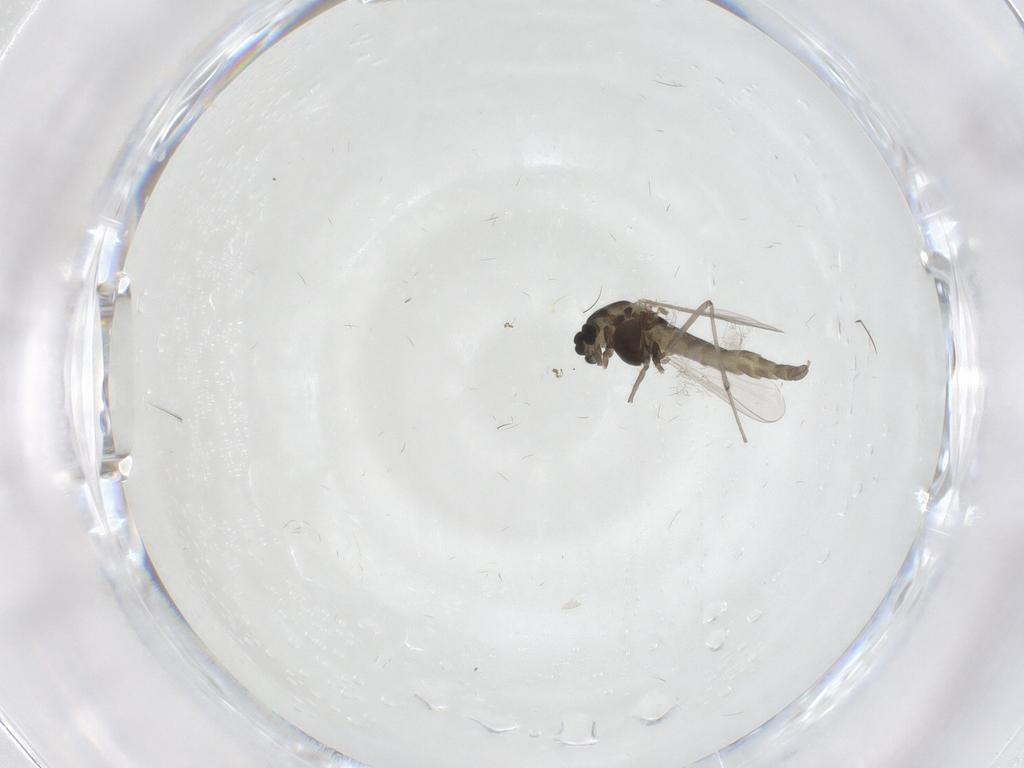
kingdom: Animalia
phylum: Arthropoda
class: Insecta
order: Diptera
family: Chironomidae
